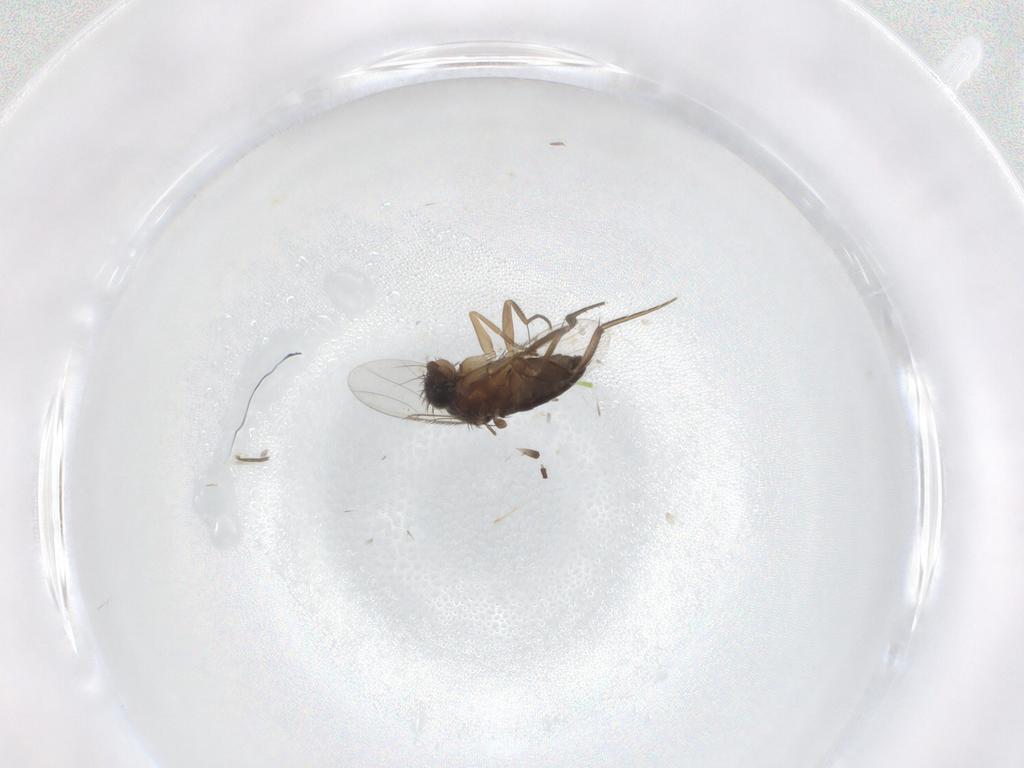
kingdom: Animalia
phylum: Arthropoda
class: Insecta
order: Diptera
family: Phoridae
